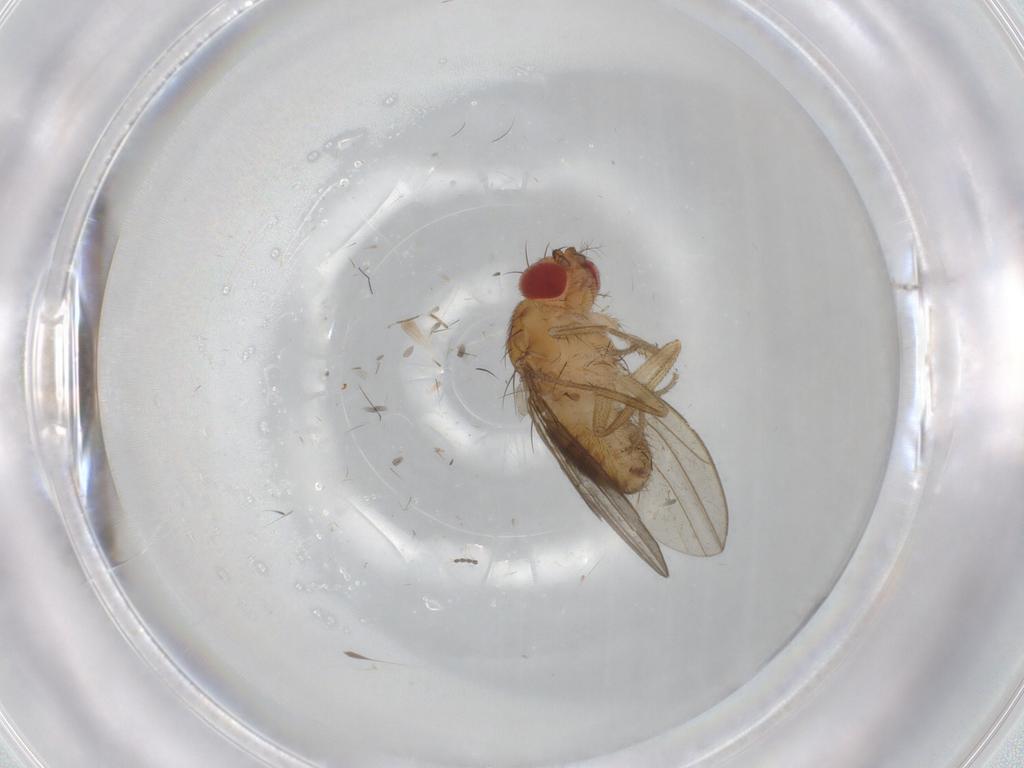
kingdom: Animalia
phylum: Arthropoda
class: Insecta
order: Diptera
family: Drosophilidae
